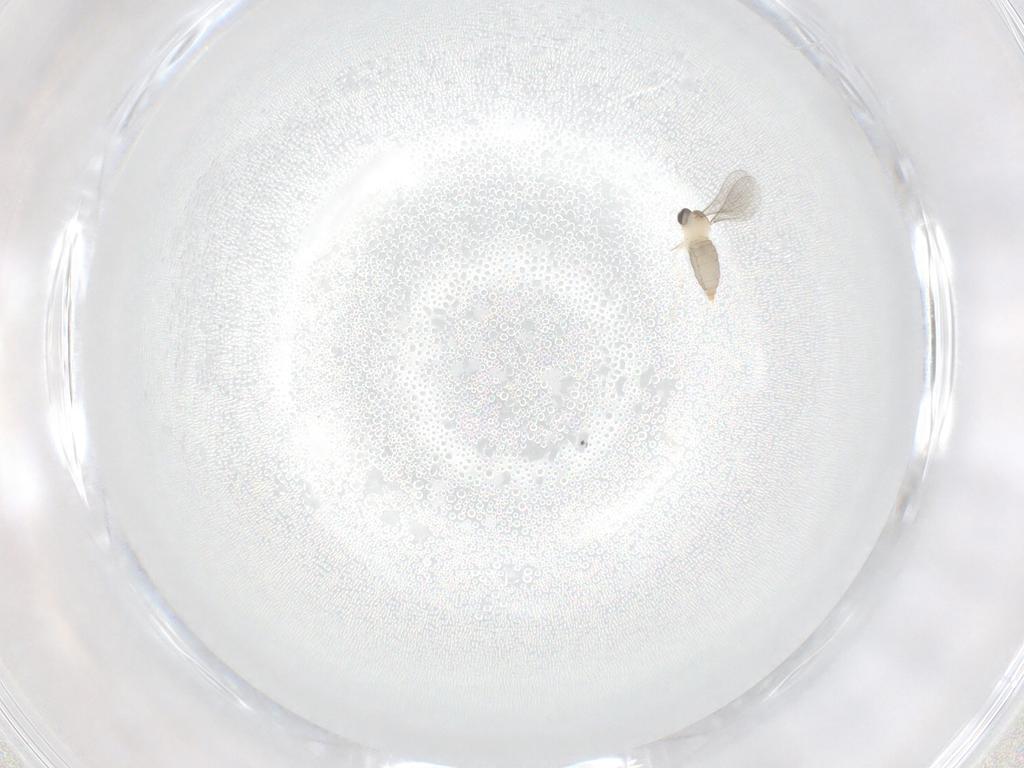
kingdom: Animalia
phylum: Arthropoda
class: Insecta
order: Diptera
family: Cecidomyiidae
